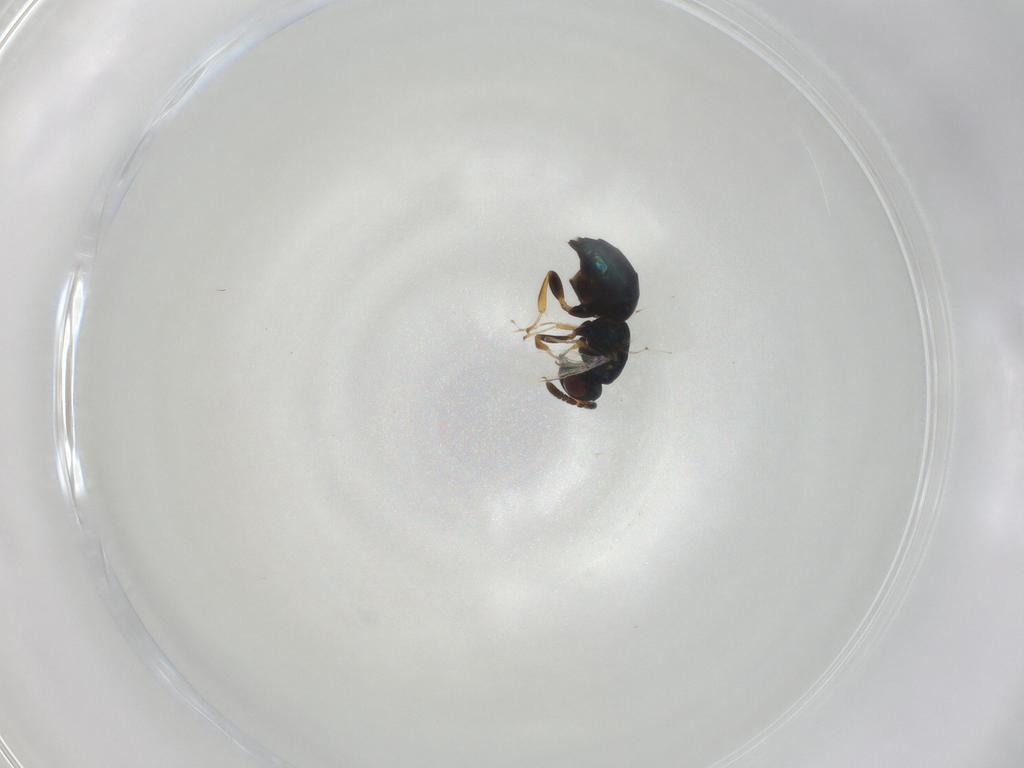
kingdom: Animalia
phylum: Arthropoda
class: Insecta
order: Hymenoptera
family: Pteromalidae
